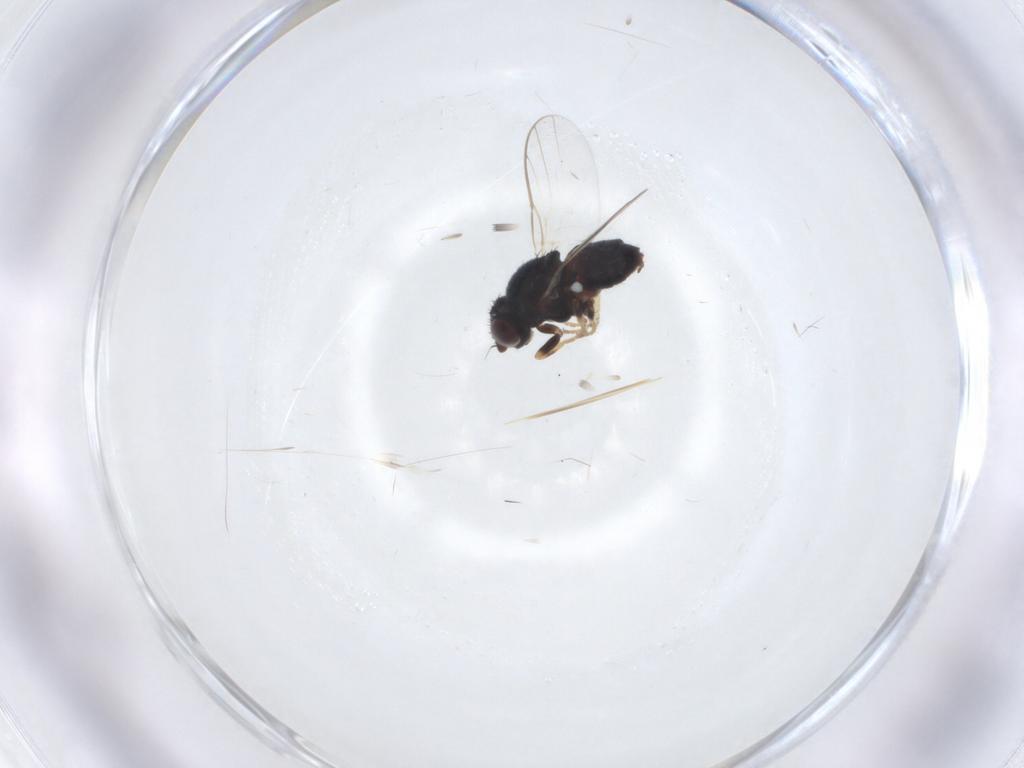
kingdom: Animalia
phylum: Arthropoda
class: Insecta
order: Diptera
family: Chloropidae
